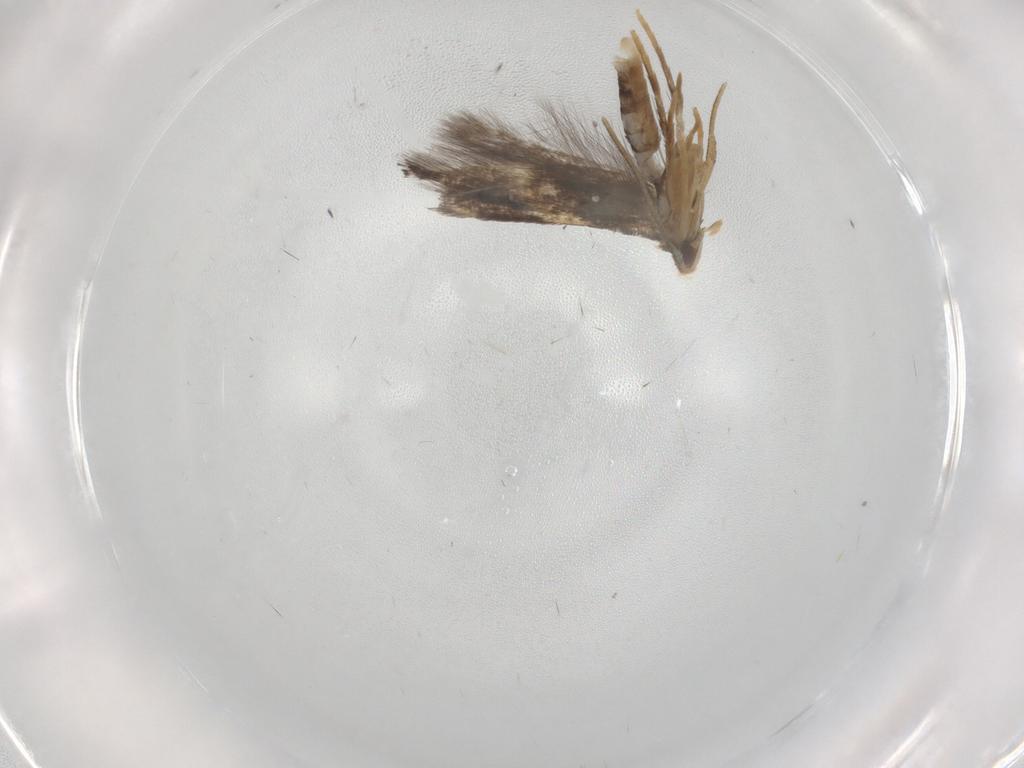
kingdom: Animalia
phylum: Arthropoda
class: Insecta
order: Lepidoptera
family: Gelechiidae
